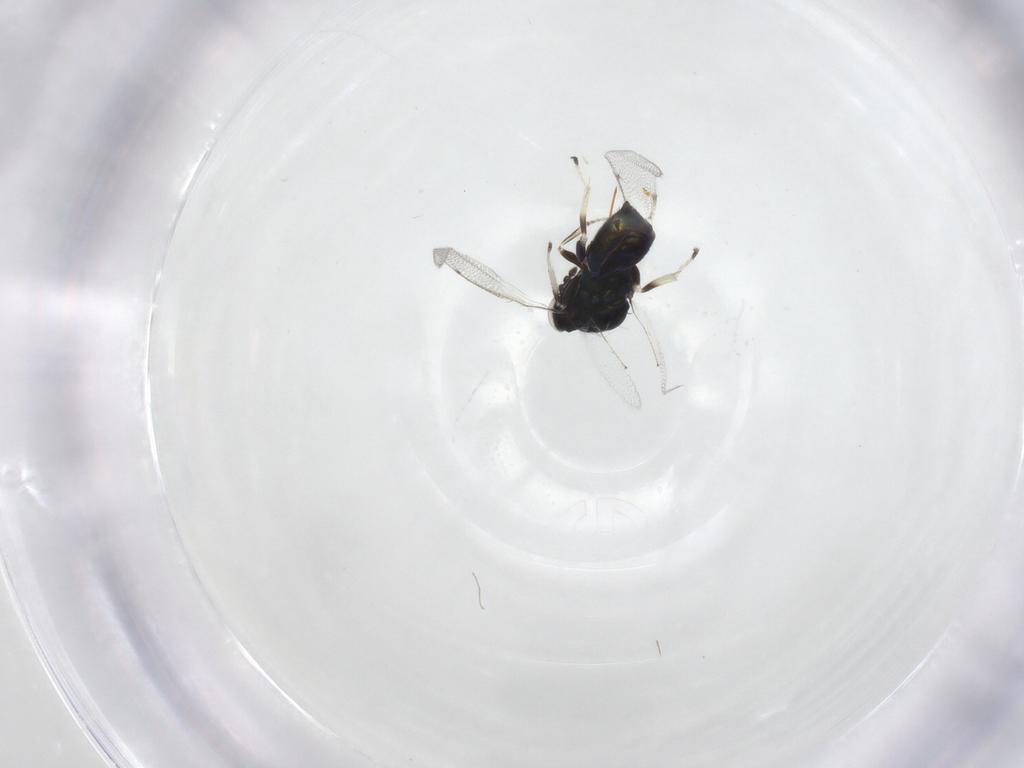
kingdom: Animalia
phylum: Arthropoda
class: Insecta
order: Hymenoptera
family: Eulophidae
